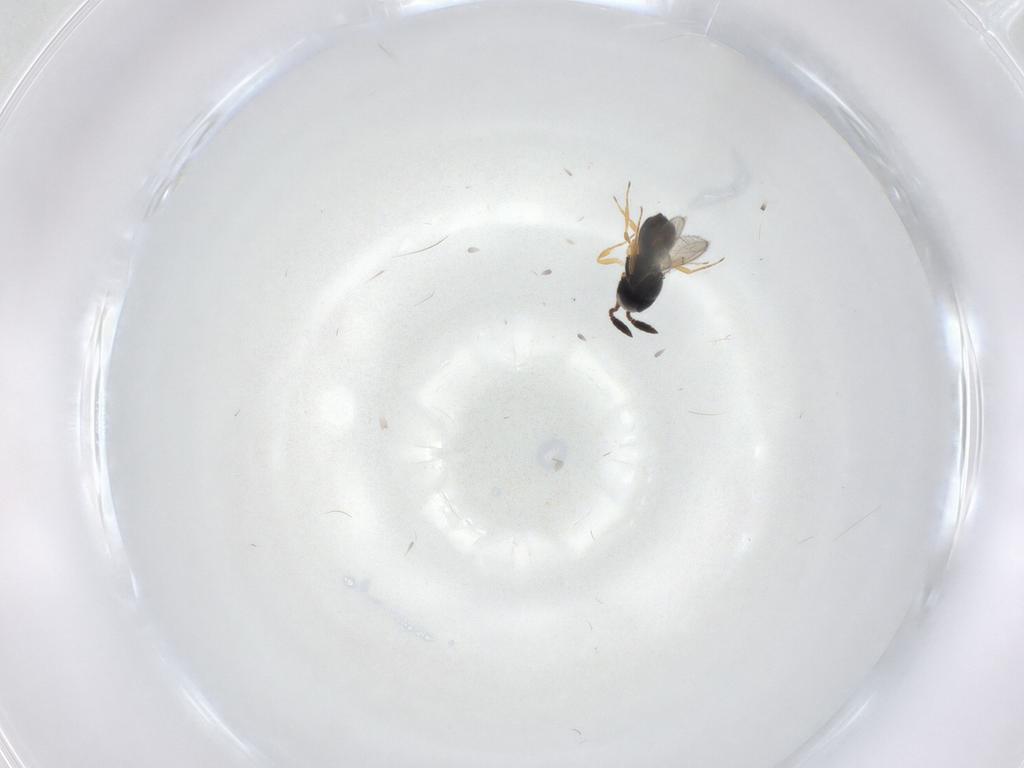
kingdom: Animalia
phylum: Arthropoda
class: Insecta
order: Hymenoptera
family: Scelionidae
